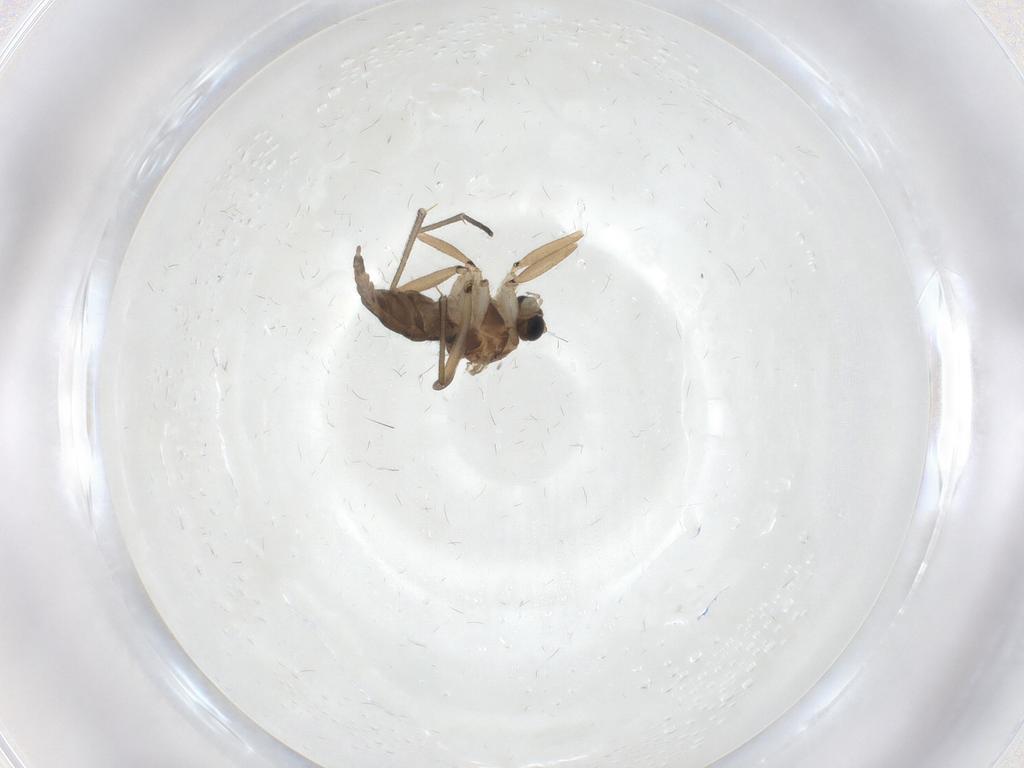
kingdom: Animalia
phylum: Arthropoda
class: Insecta
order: Diptera
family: Sciaridae
